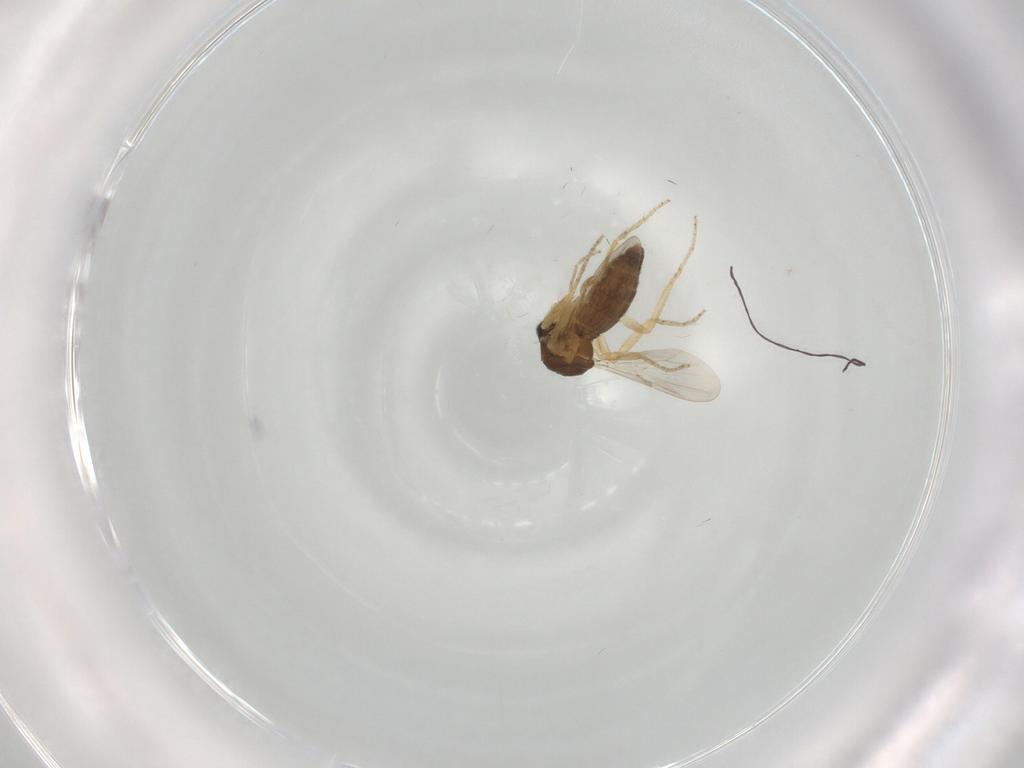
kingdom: Animalia
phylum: Arthropoda
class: Insecta
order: Diptera
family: Ceratopogonidae
